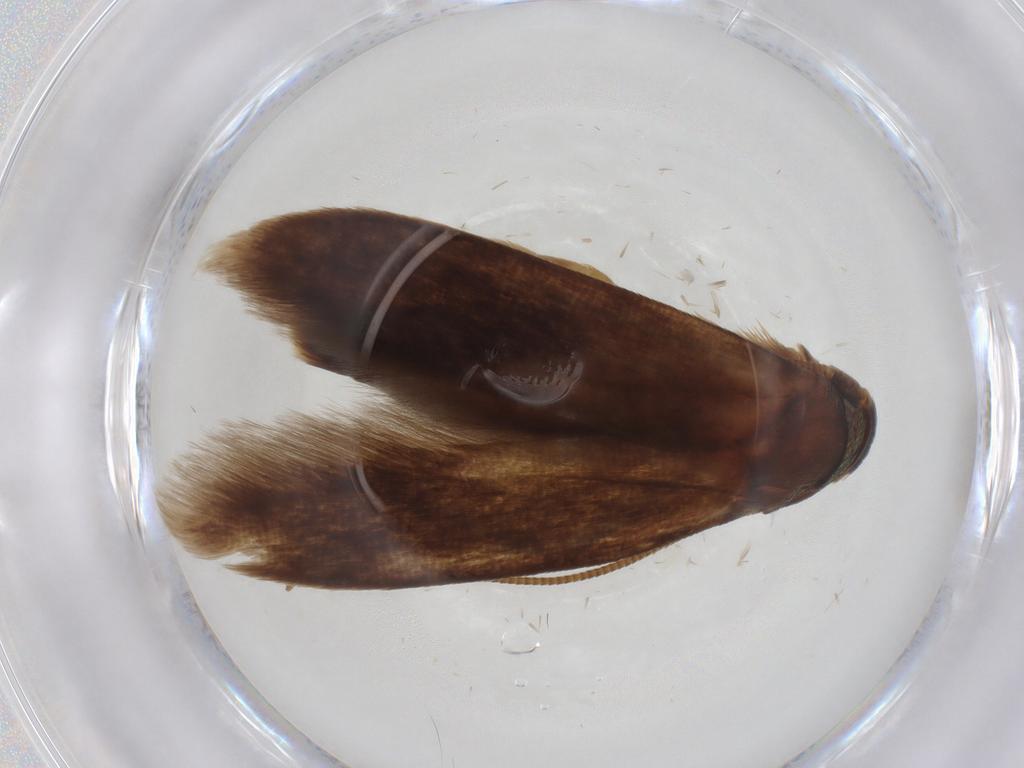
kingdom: Animalia
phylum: Arthropoda
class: Insecta
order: Lepidoptera
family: Tineidae
